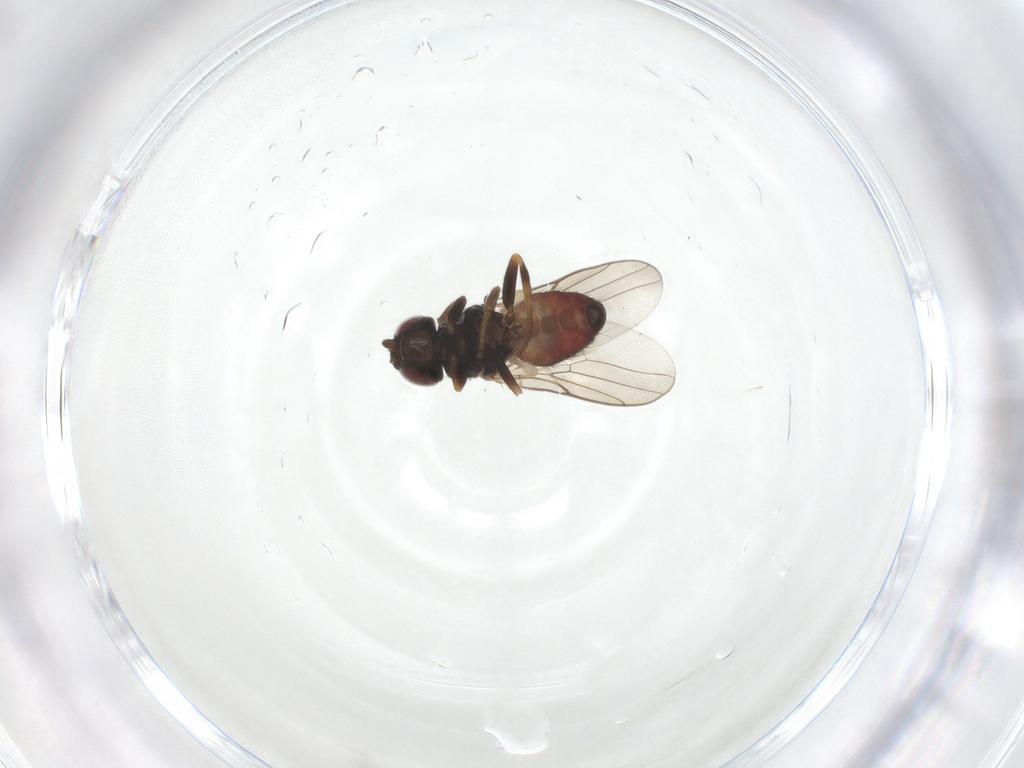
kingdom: Animalia
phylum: Arthropoda
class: Insecta
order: Diptera
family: Chloropidae
